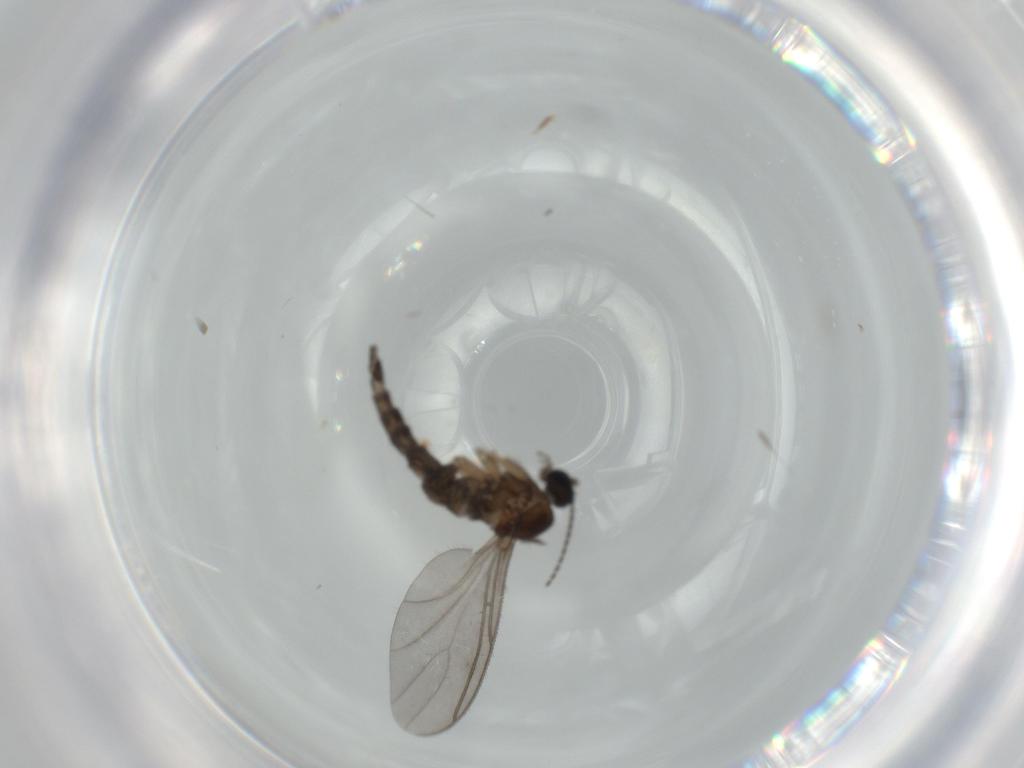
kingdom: Animalia
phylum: Arthropoda
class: Insecta
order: Diptera
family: Sciaridae
